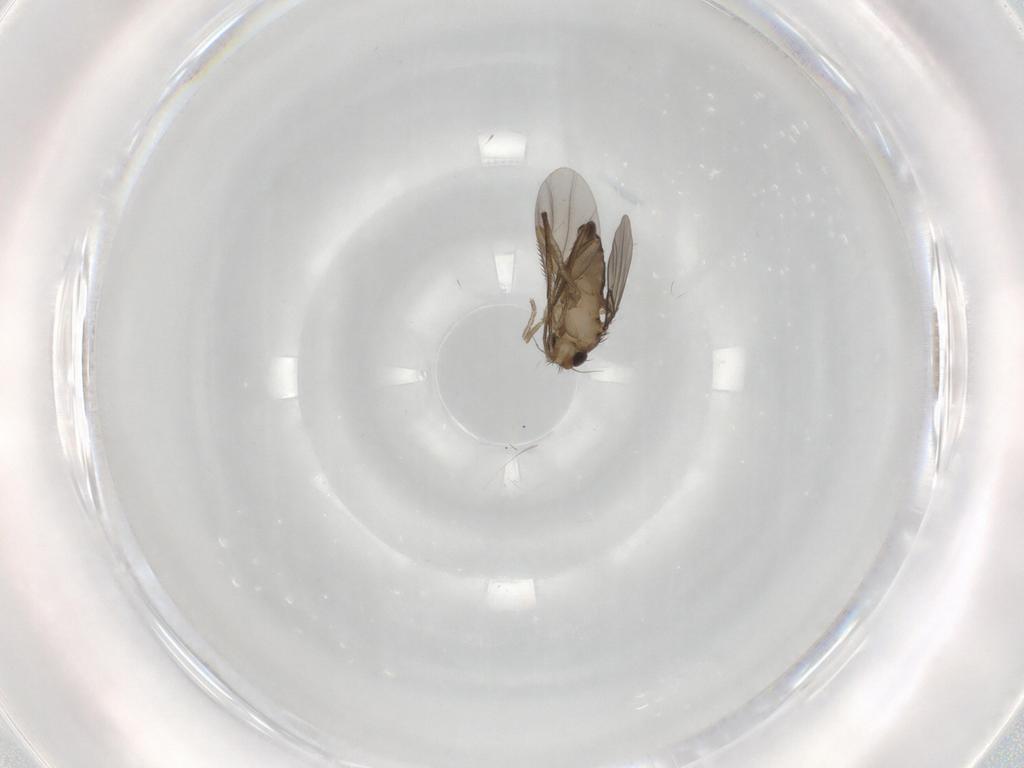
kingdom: Animalia
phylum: Arthropoda
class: Insecta
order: Diptera
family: Phoridae
